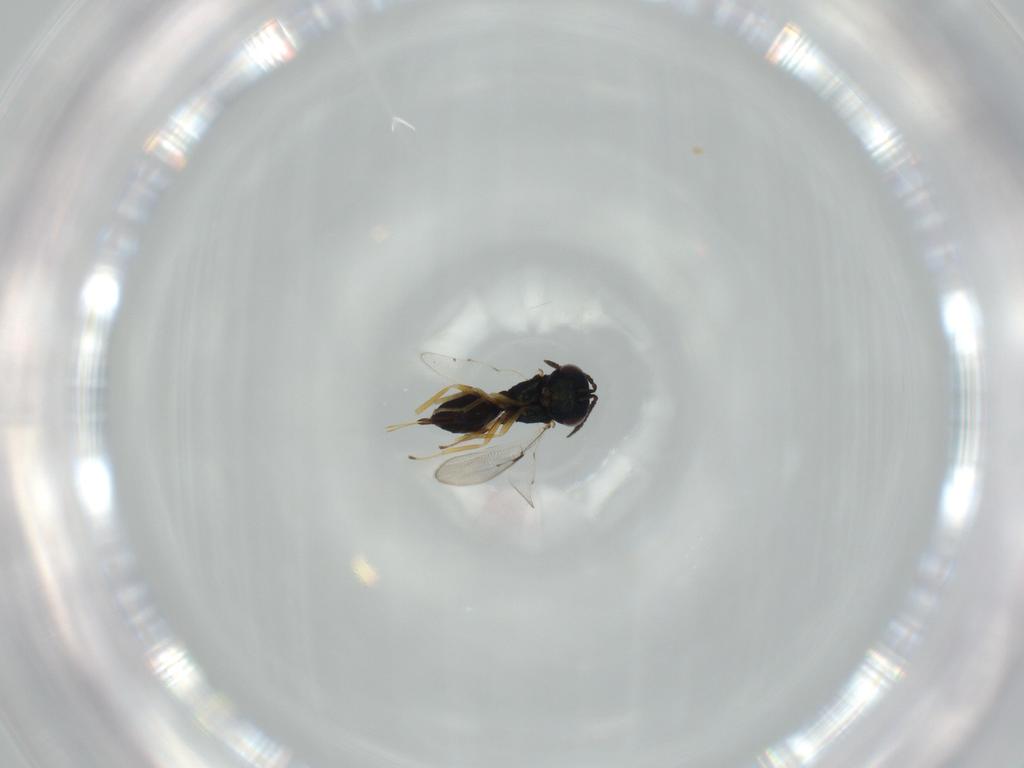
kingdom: Animalia
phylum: Arthropoda
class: Insecta
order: Hymenoptera
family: Pteromalidae
